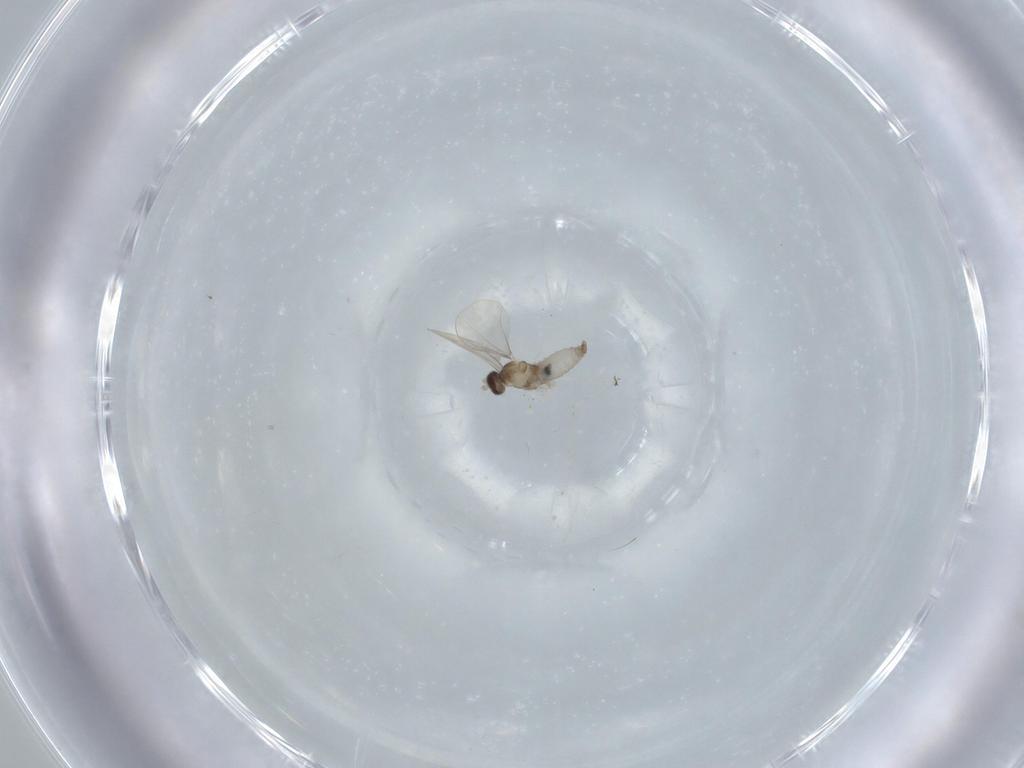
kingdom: Animalia
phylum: Arthropoda
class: Insecta
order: Diptera
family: Cecidomyiidae
